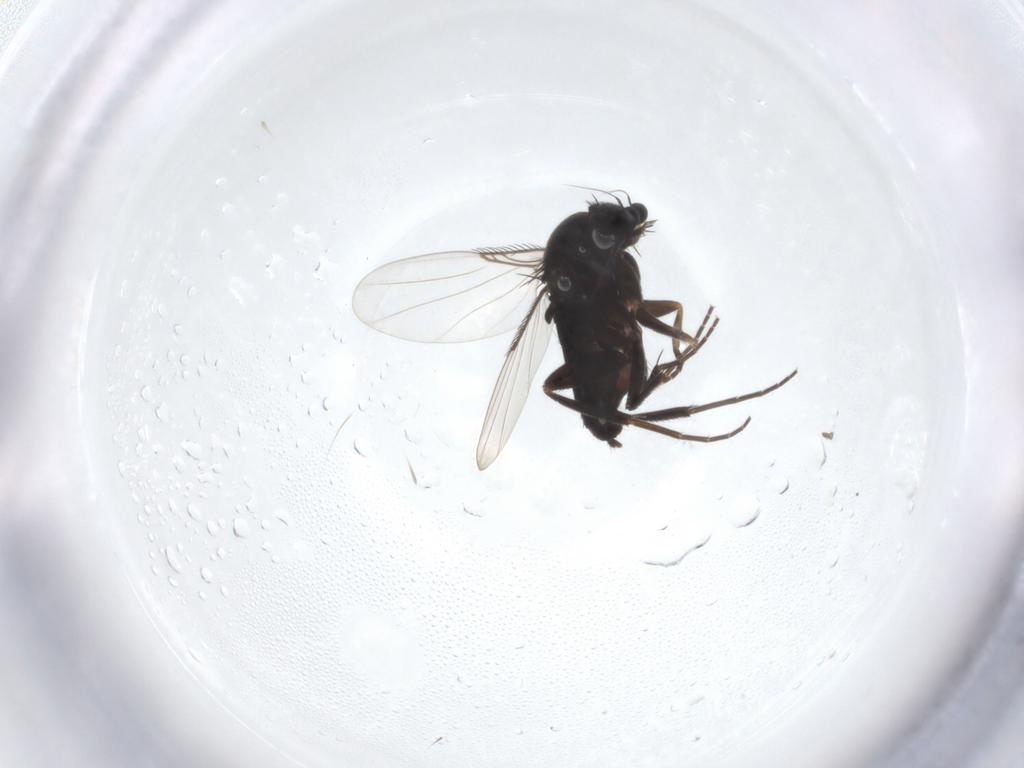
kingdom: Animalia
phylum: Arthropoda
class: Insecta
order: Diptera
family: Phoridae
